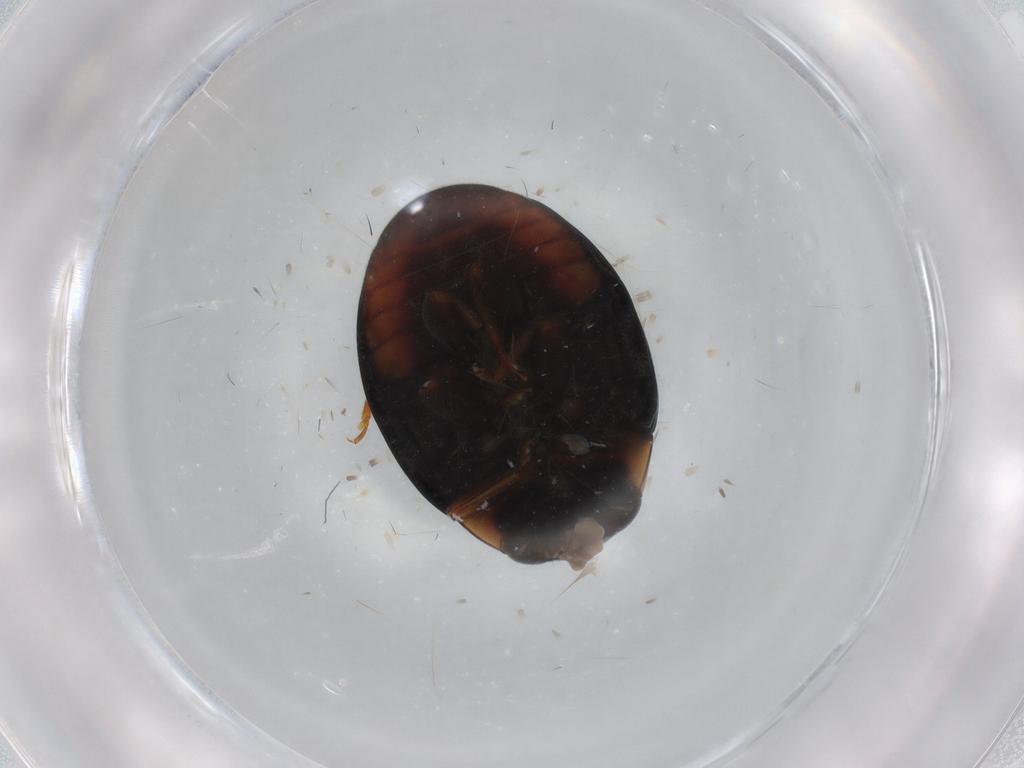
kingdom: Animalia
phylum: Arthropoda
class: Insecta
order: Coleoptera
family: Coccinellidae
